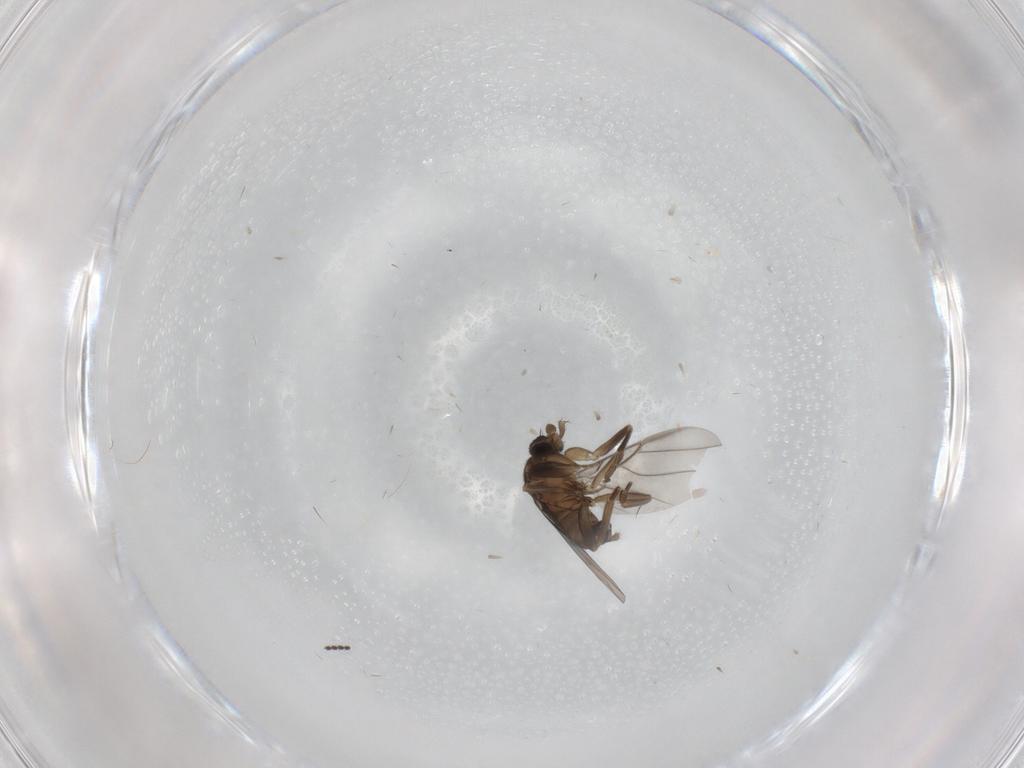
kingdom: Animalia
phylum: Arthropoda
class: Insecta
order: Diptera
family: Sciaridae
